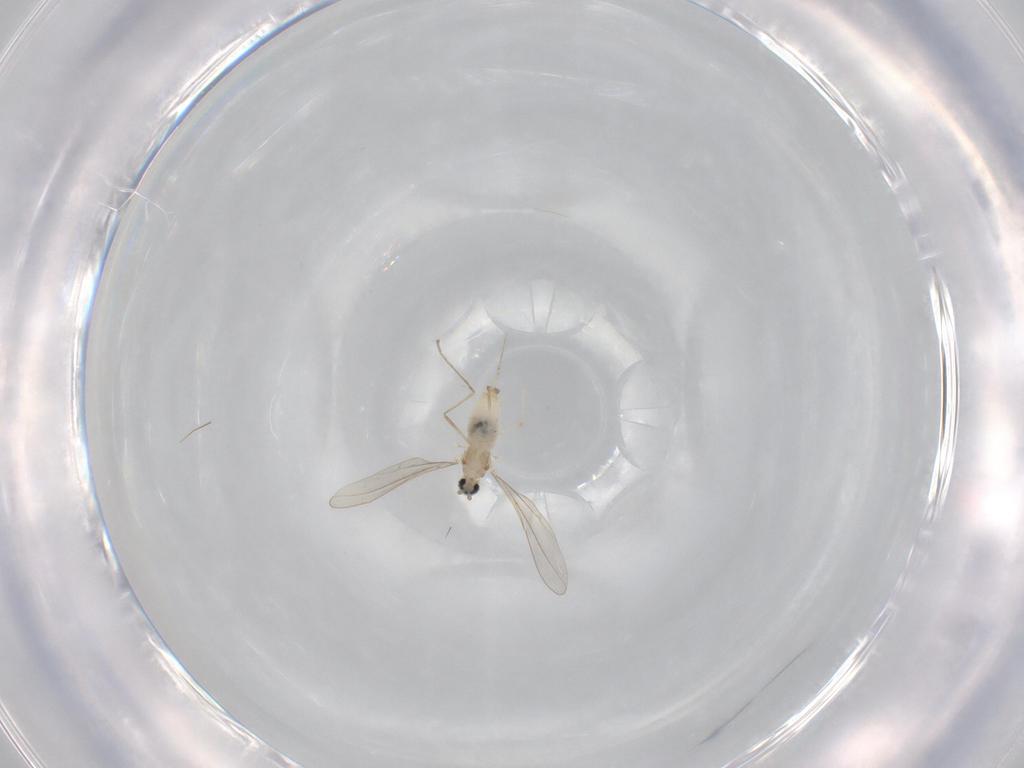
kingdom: Animalia
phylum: Arthropoda
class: Insecta
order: Diptera
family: Cecidomyiidae
